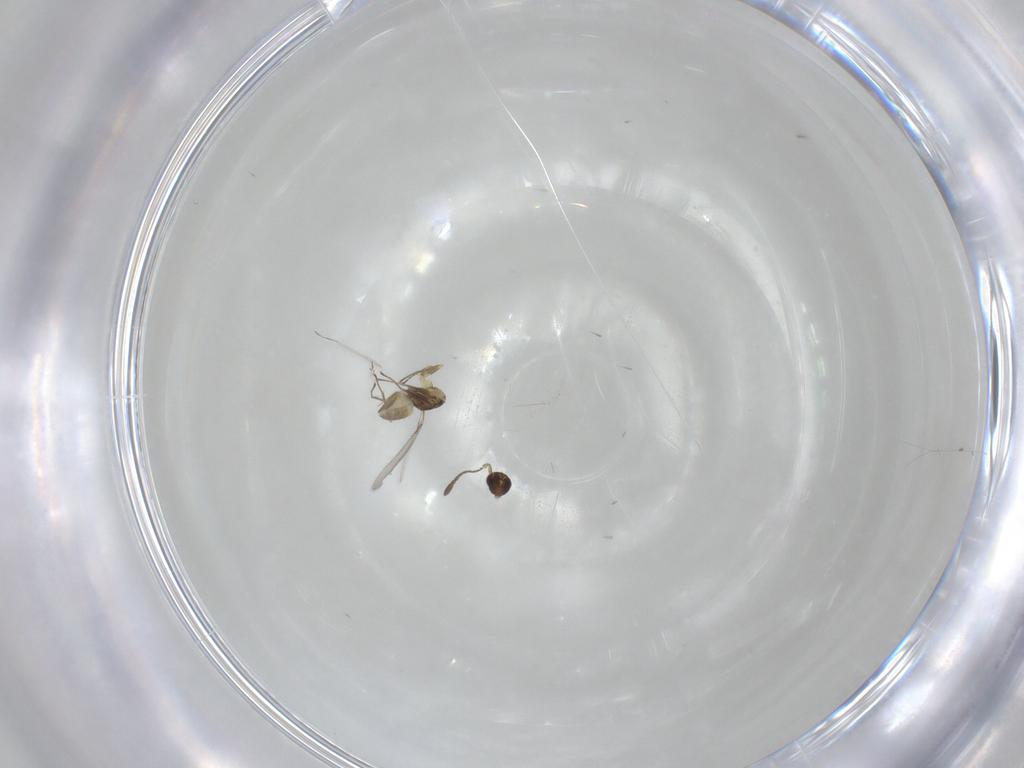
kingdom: Animalia
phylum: Arthropoda
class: Insecta
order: Hymenoptera
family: Mymaridae
